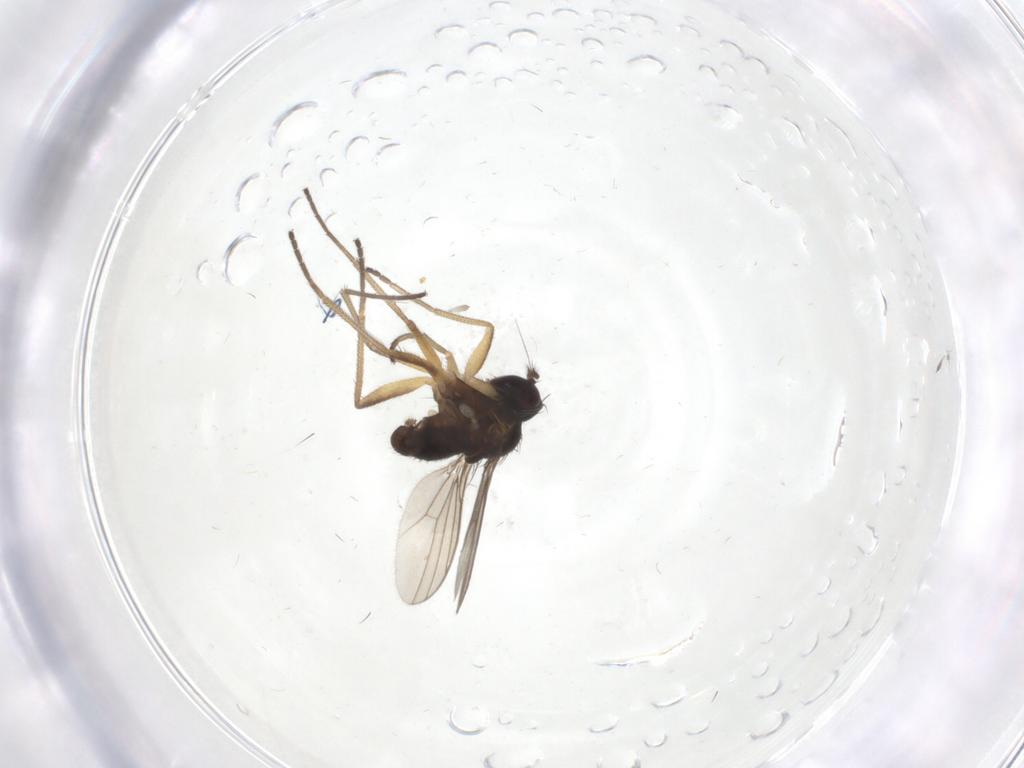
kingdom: Animalia
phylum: Arthropoda
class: Insecta
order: Diptera
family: Dolichopodidae
